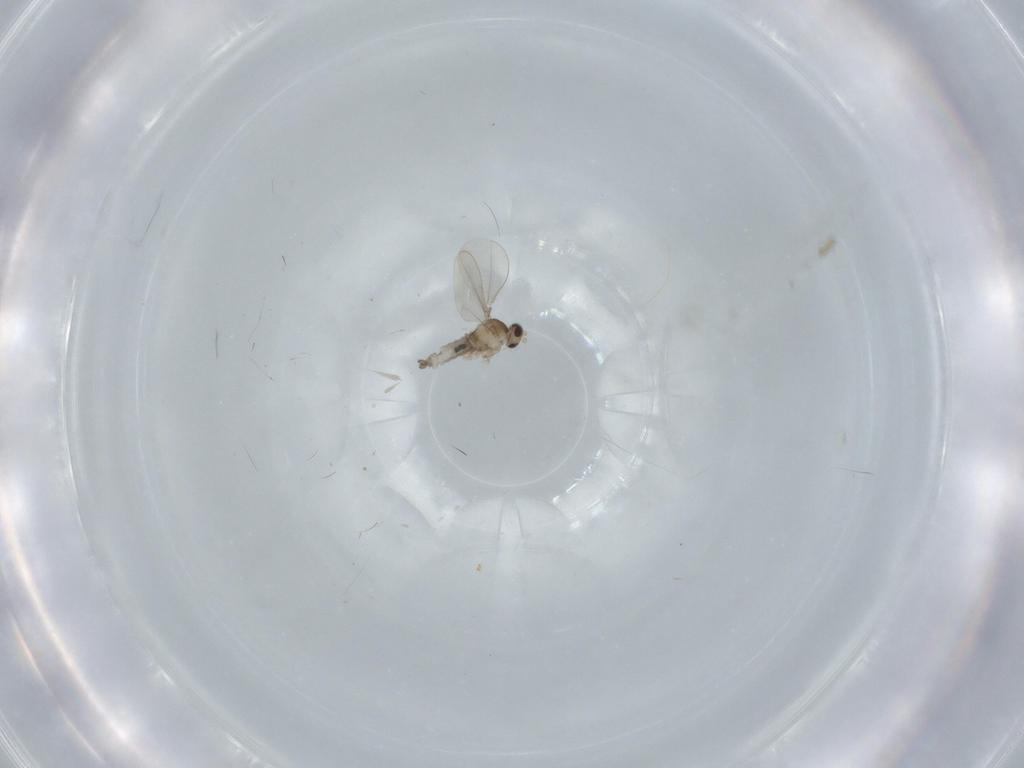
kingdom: Animalia
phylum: Arthropoda
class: Insecta
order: Diptera
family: Cecidomyiidae
